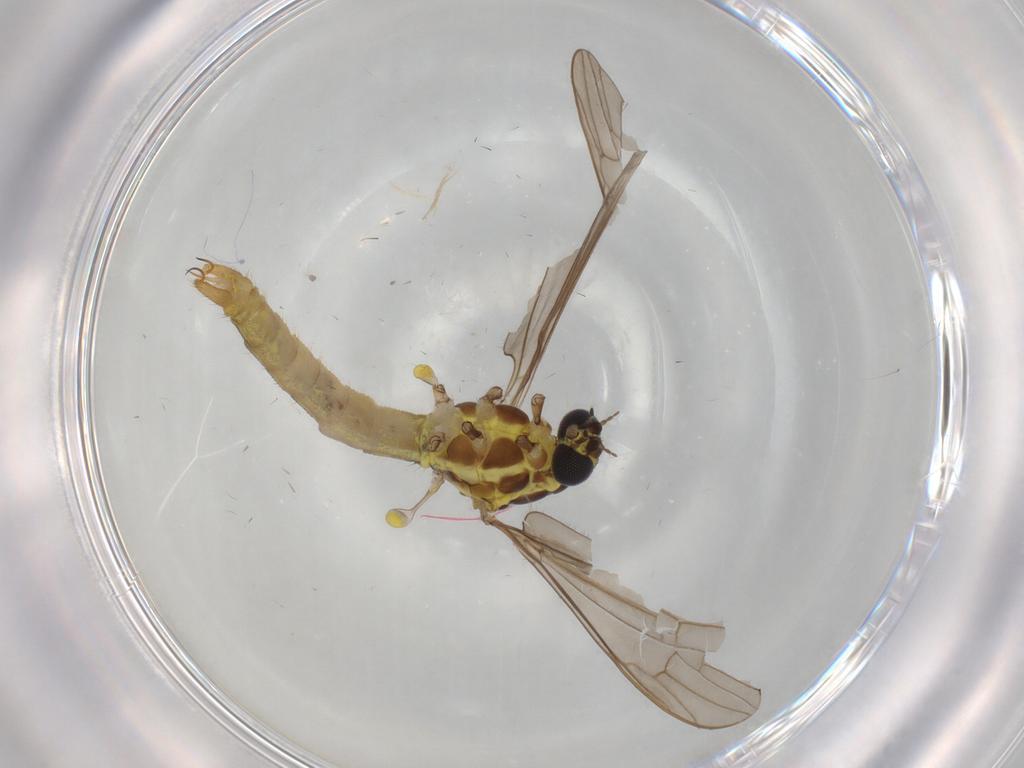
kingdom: Animalia
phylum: Arthropoda
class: Insecta
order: Diptera
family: Limoniidae
